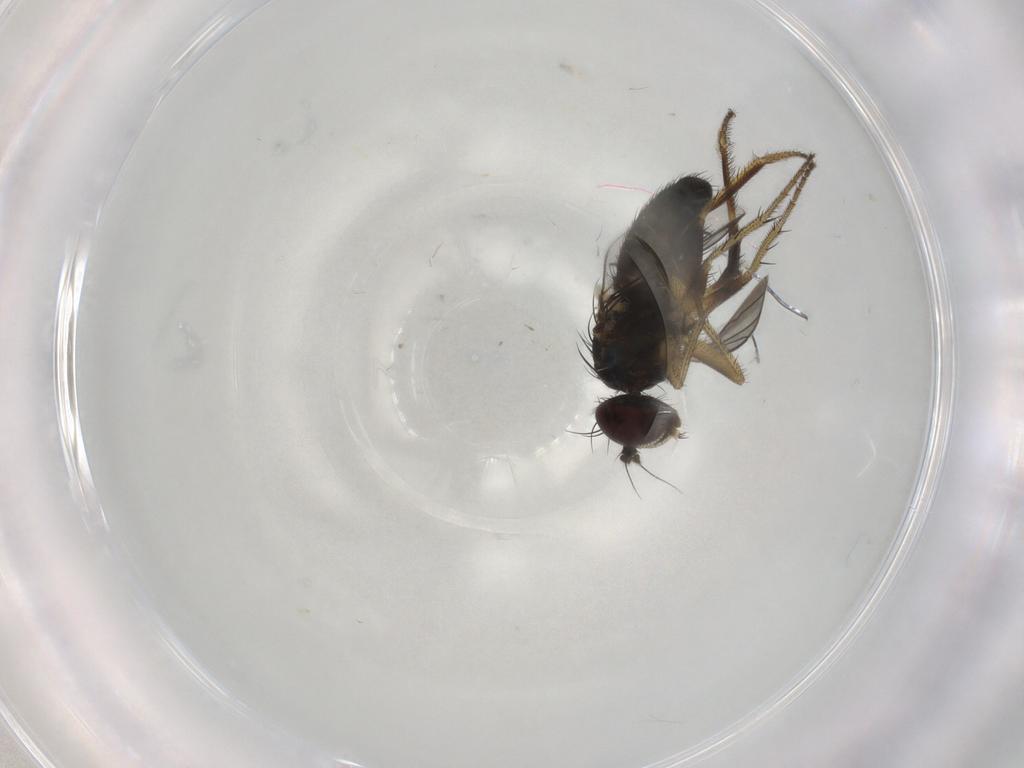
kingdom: Animalia
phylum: Arthropoda
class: Insecta
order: Diptera
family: Dolichopodidae
